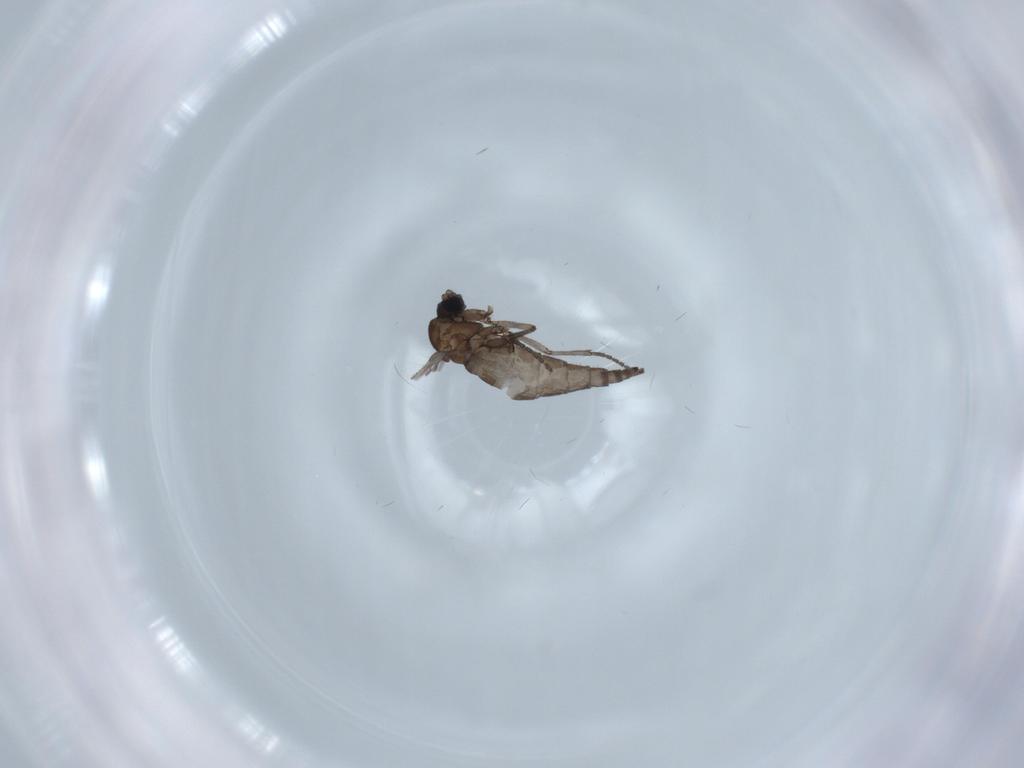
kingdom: Animalia
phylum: Arthropoda
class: Insecta
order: Diptera
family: Sciaridae
